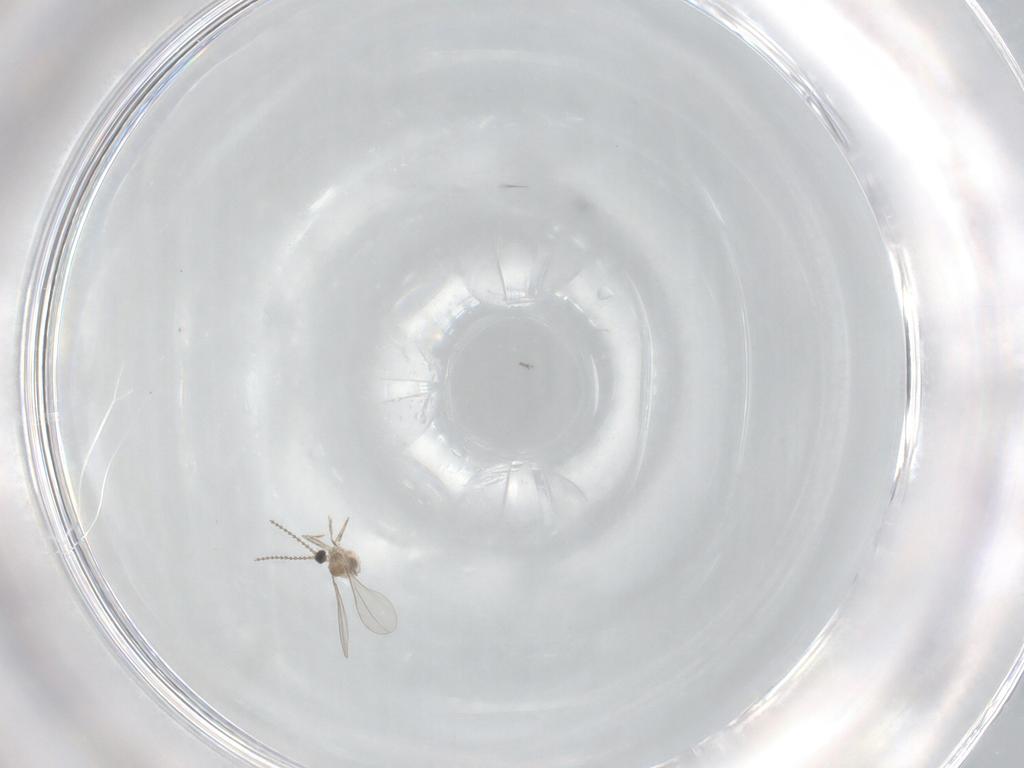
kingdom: Animalia
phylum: Arthropoda
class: Insecta
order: Diptera
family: Cecidomyiidae
